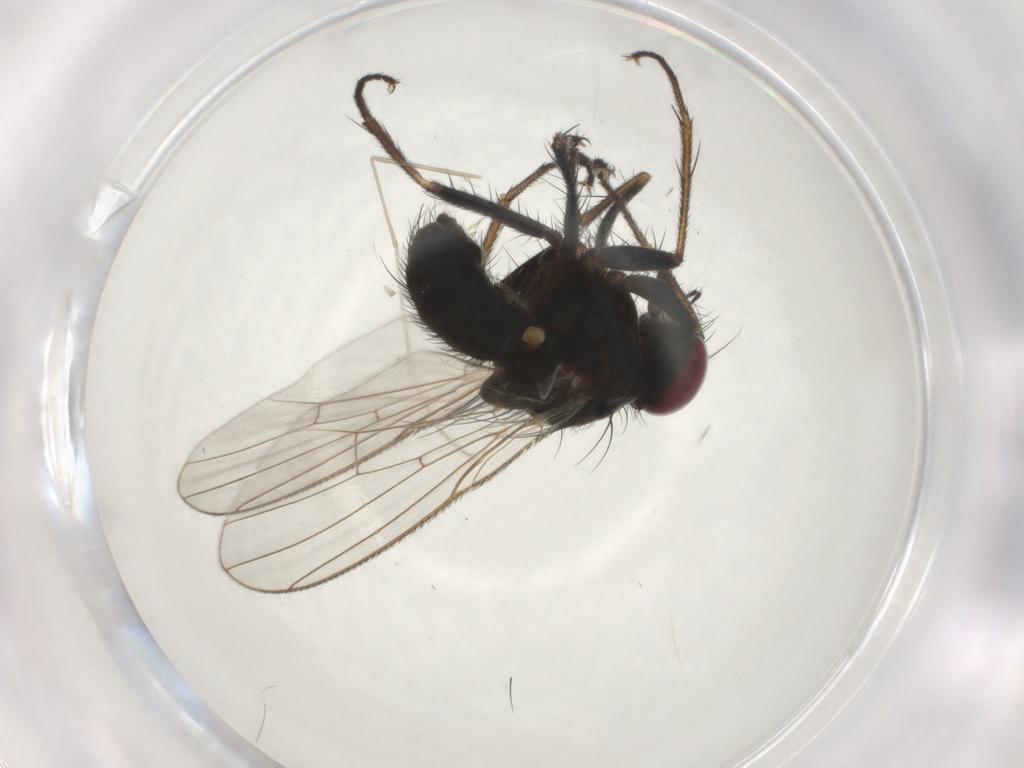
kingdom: Animalia
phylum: Arthropoda
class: Insecta
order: Diptera
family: Muscidae
